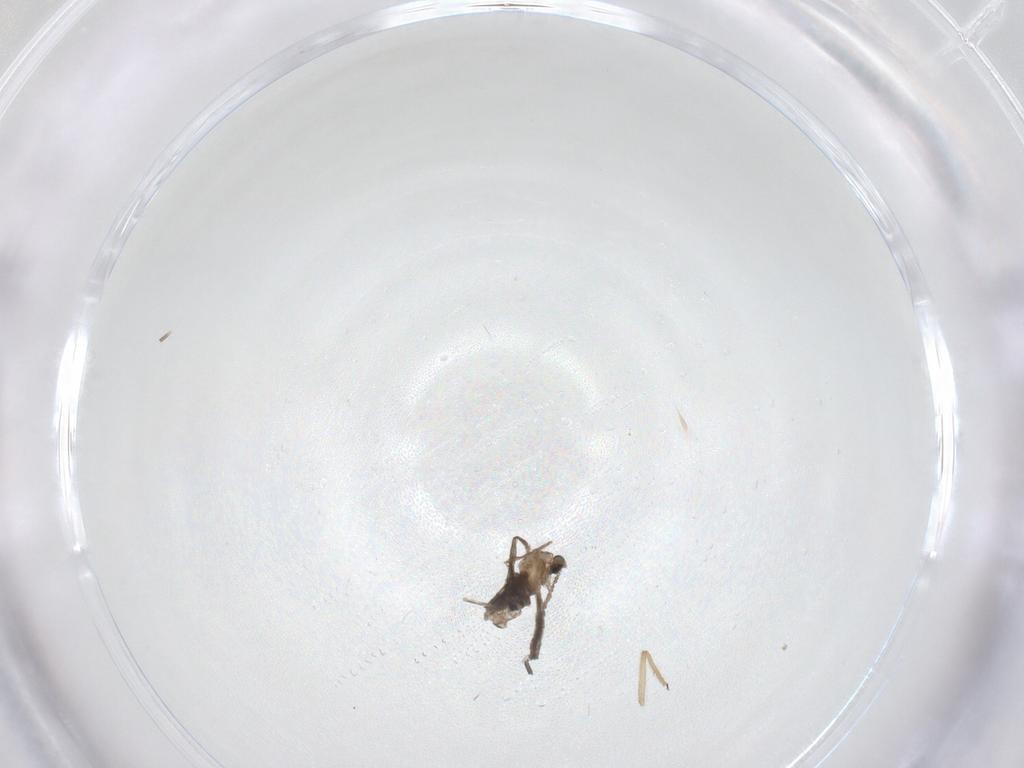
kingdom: Animalia
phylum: Arthropoda
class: Insecta
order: Diptera
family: Chironomidae
